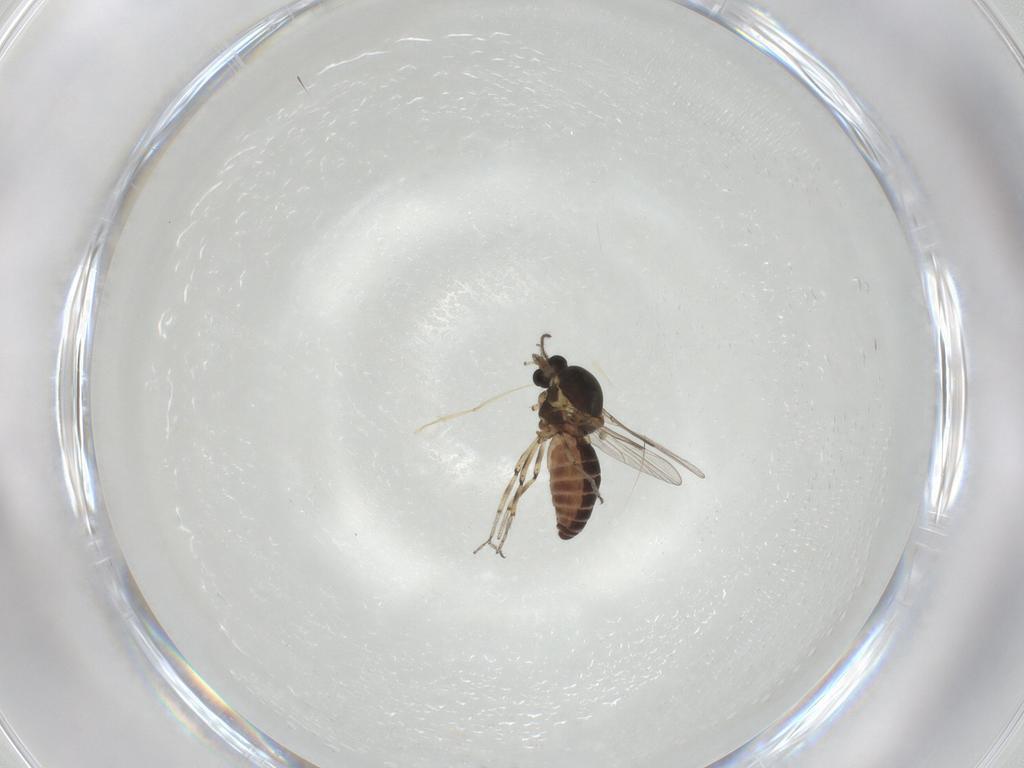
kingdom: Animalia
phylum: Arthropoda
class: Insecta
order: Diptera
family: Ceratopogonidae
